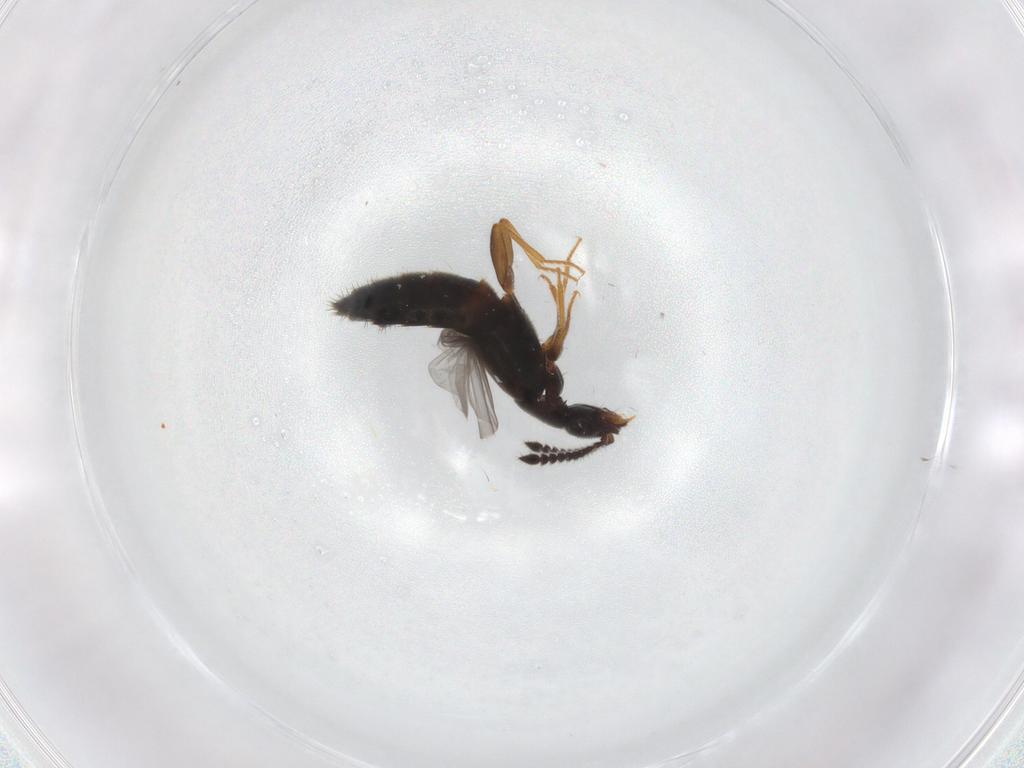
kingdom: Animalia
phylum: Arthropoda
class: Insecta
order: Coleoptera
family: Staphylinidae
